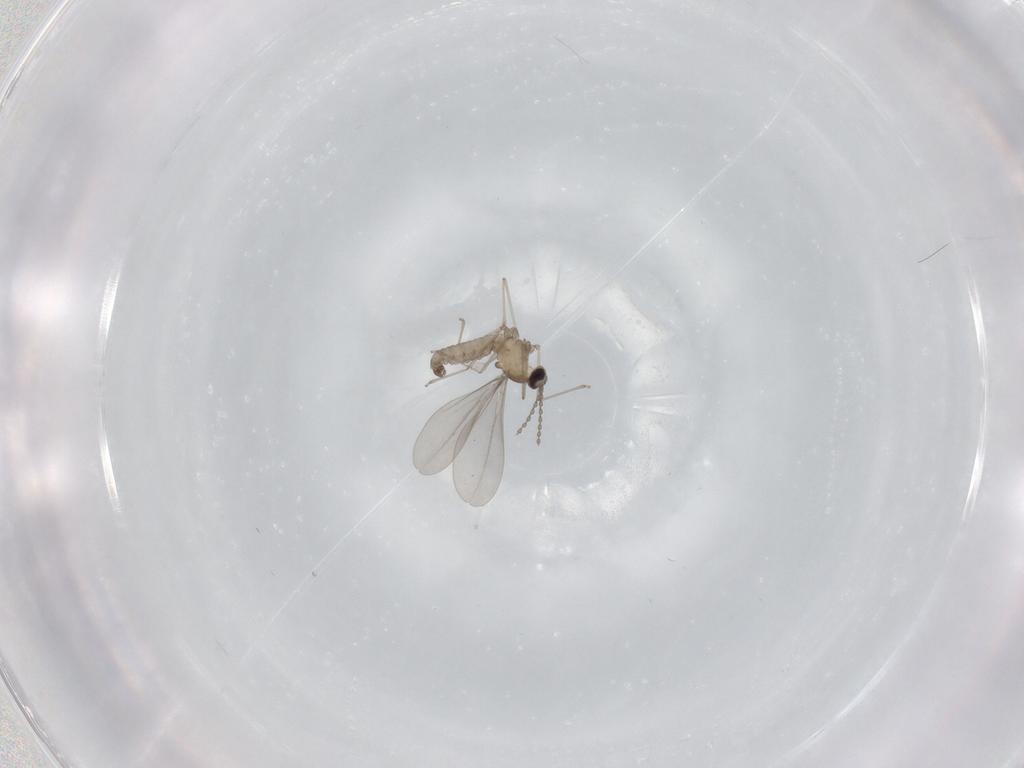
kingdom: Animalia
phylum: Arthropoda
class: Insecta
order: Diptera
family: Cecidomyiidae
